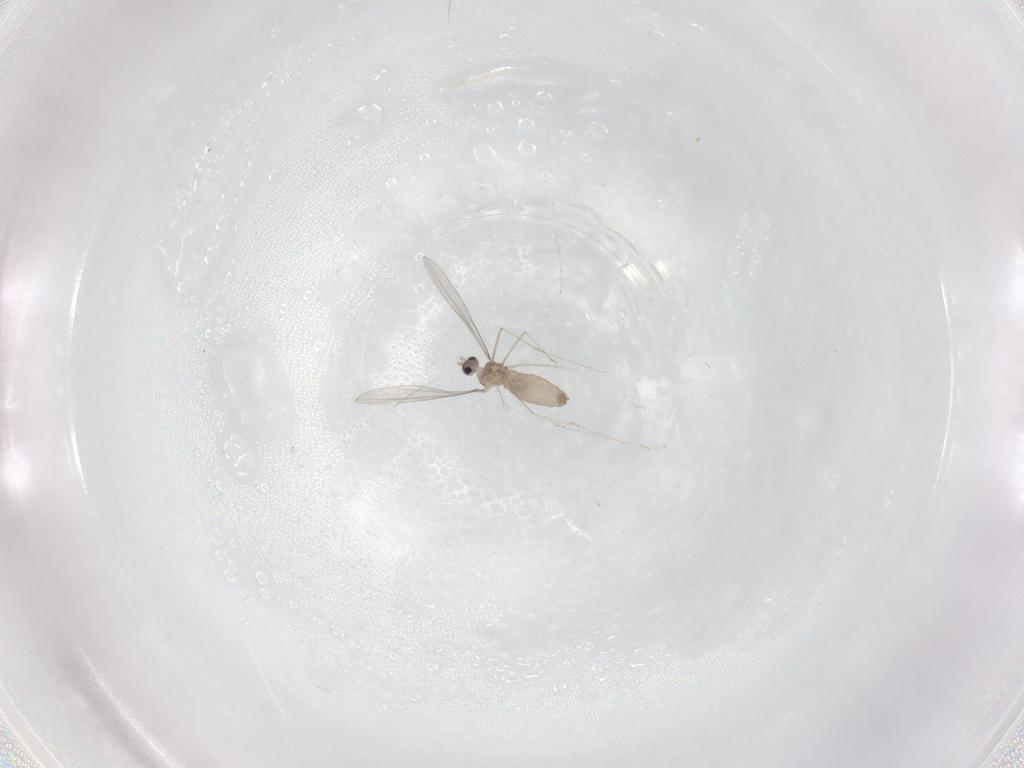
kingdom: Animalia
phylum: Arthropoda
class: Insecta
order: Diptera
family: Cecidomyiidae
